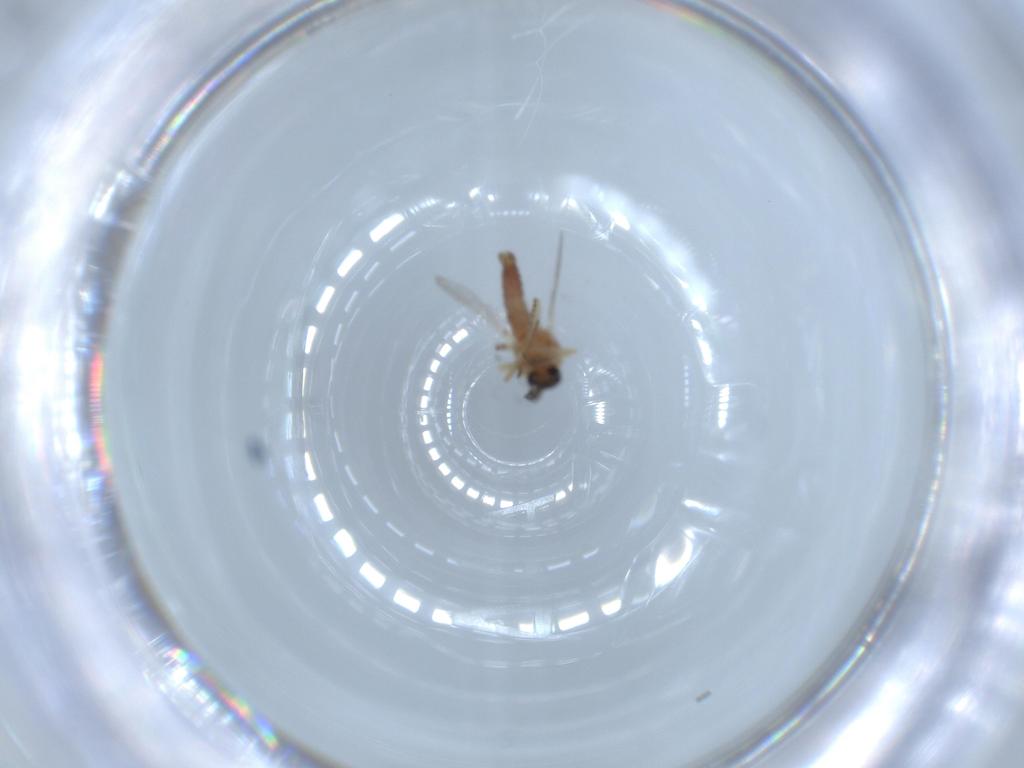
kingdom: Animalia
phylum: Arthropoda
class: Insecta
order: Diptera
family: Ceratopogonidae
